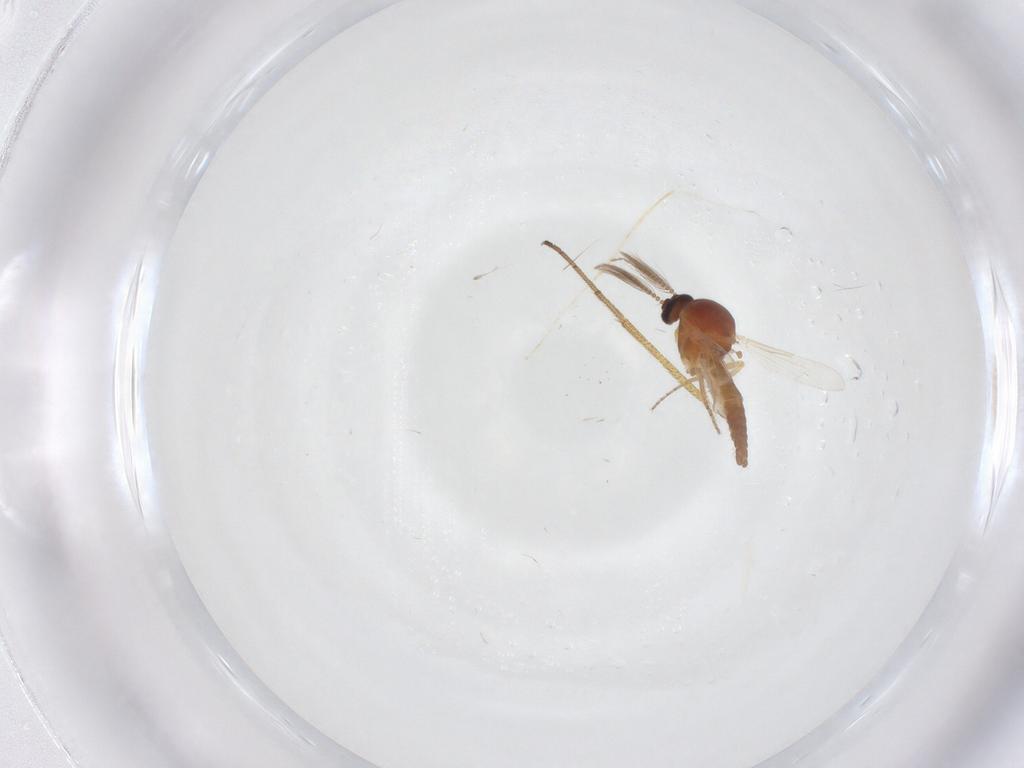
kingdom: Animalia
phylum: Arthropoda
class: Insecta
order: Diptera
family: Cecidomyiidae
